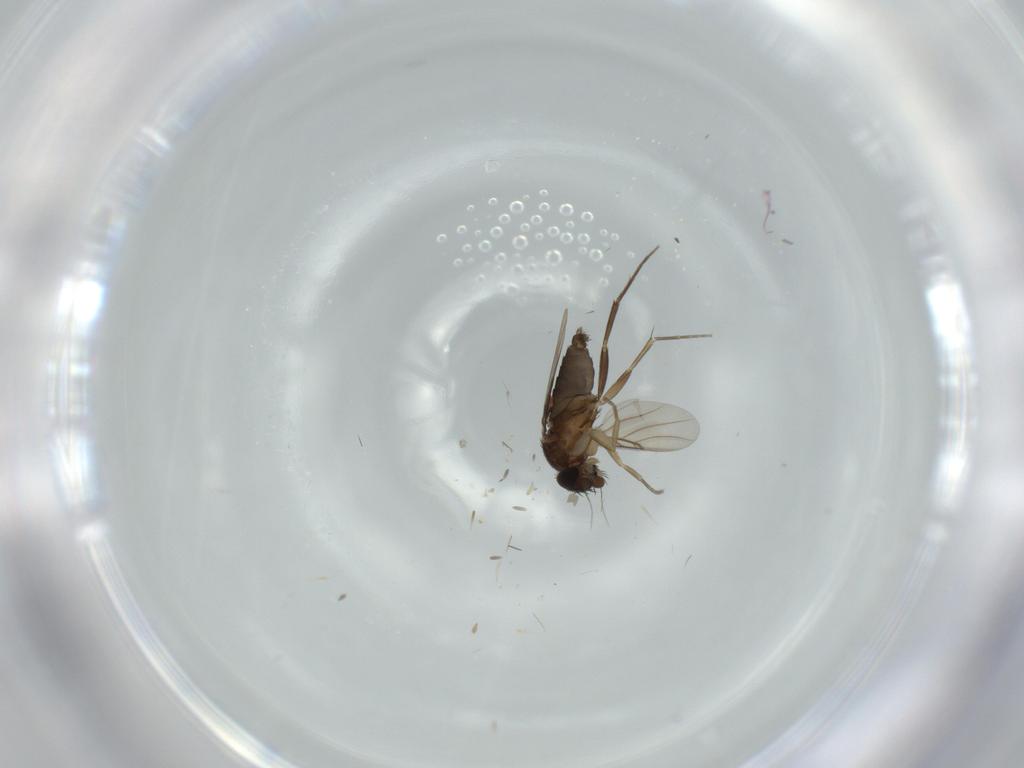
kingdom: Animalia
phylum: Arthropoda
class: Insecta
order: Diptera
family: Phoridae
